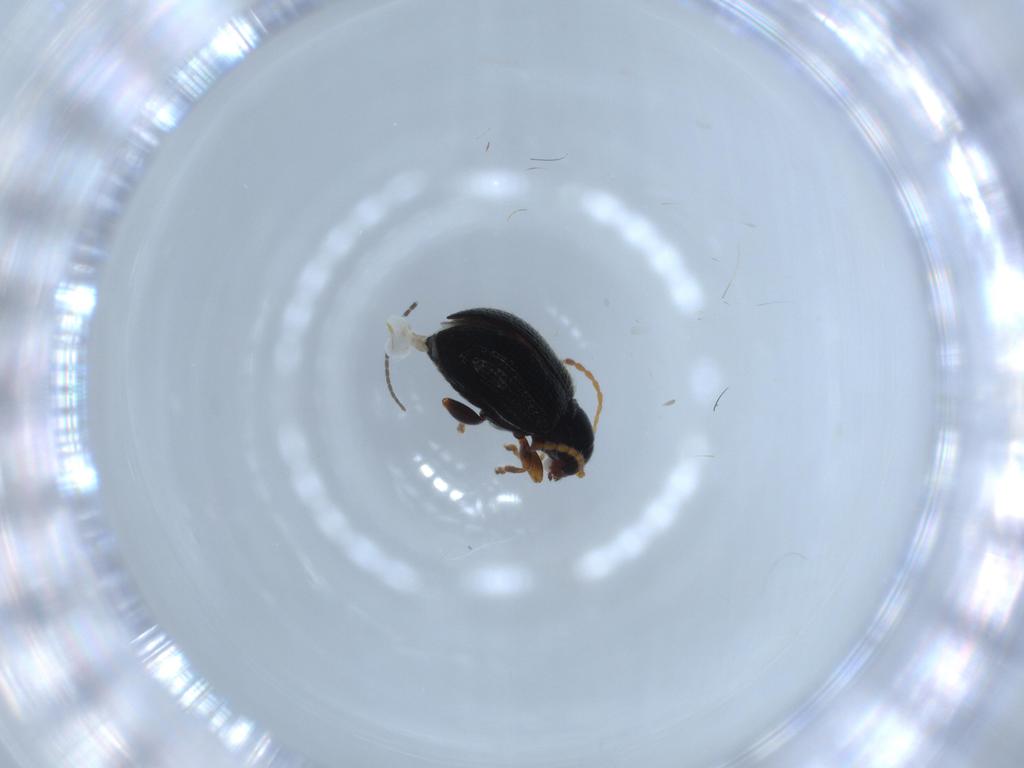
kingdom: Animalia
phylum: Arthropoda
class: Insecta
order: Coleoptera
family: Chrysomelidae
